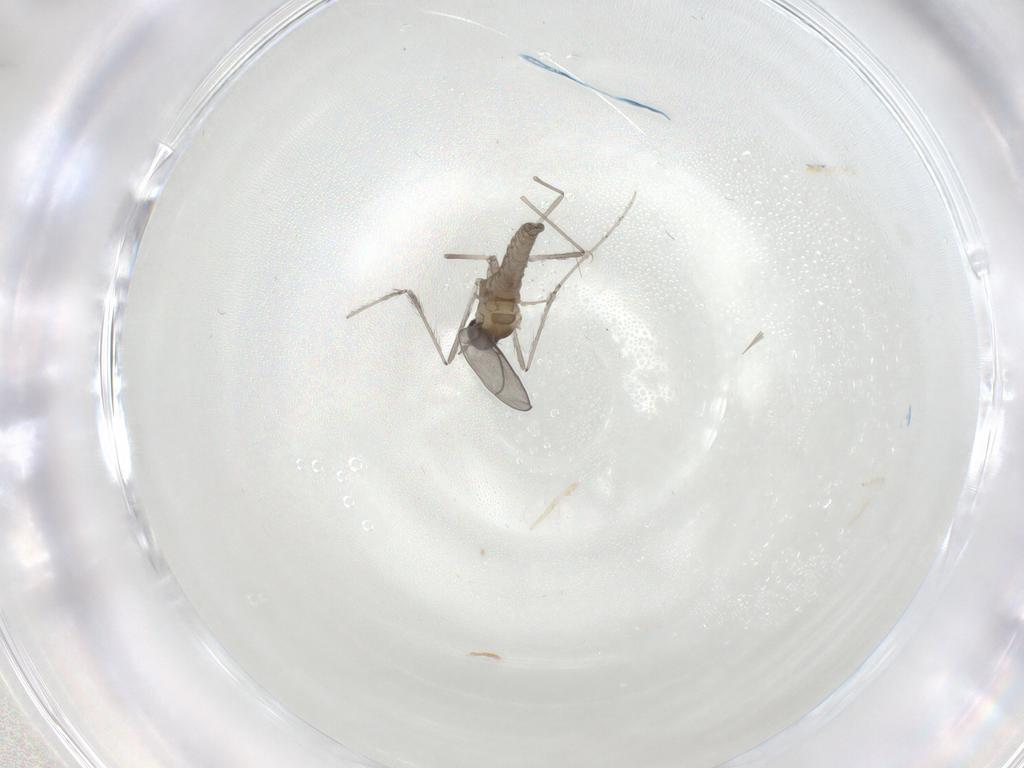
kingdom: Animalia
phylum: Arthropoda
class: Insecta
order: Diptera
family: Cecidomyiidae
